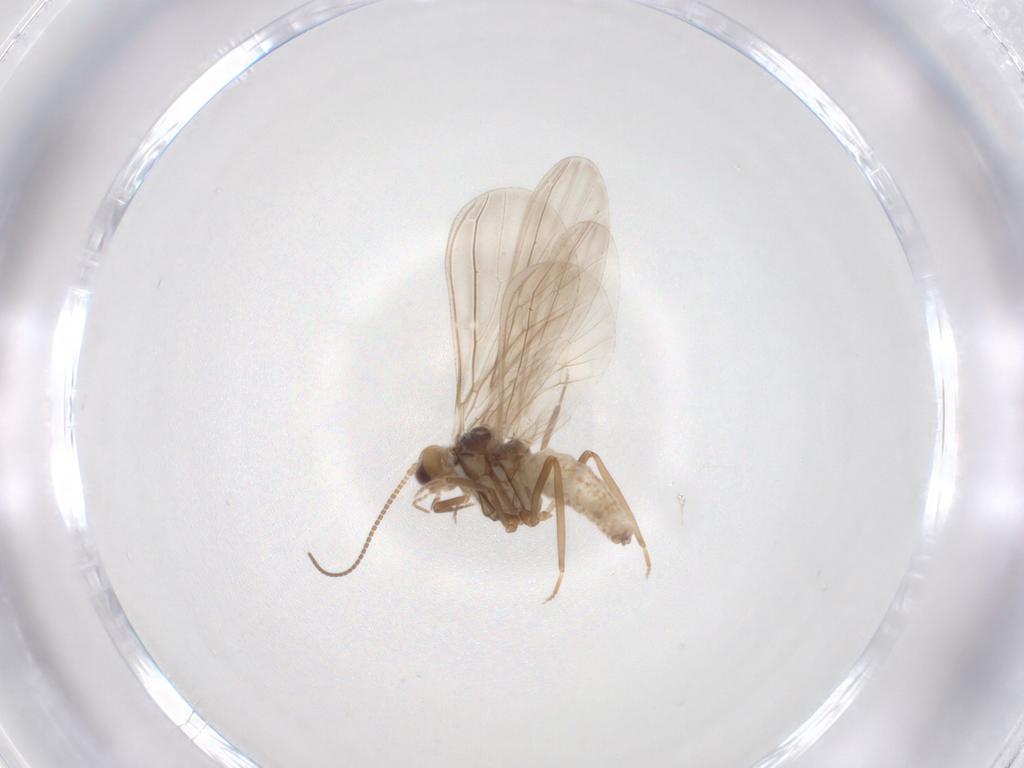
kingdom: Animalia
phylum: Arthropoda
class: Insecta
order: Neuroptera
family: Coniopterygidae
